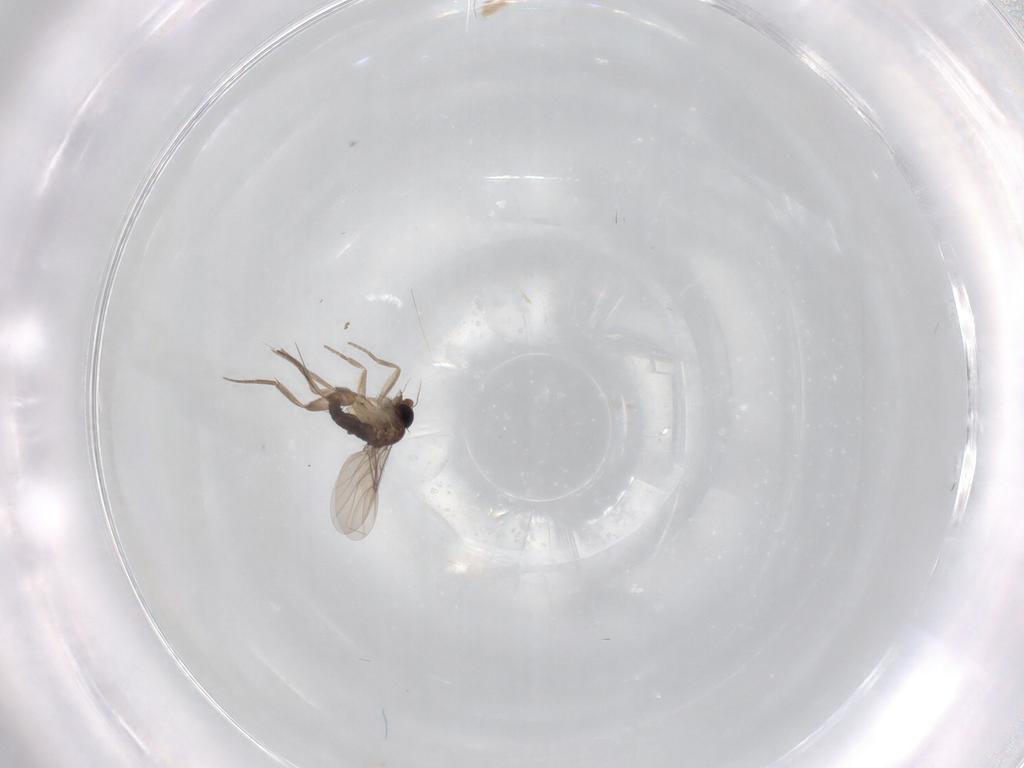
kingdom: Animalia
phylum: Arthropoda
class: Insecta
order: Diptera
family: Phoridae
